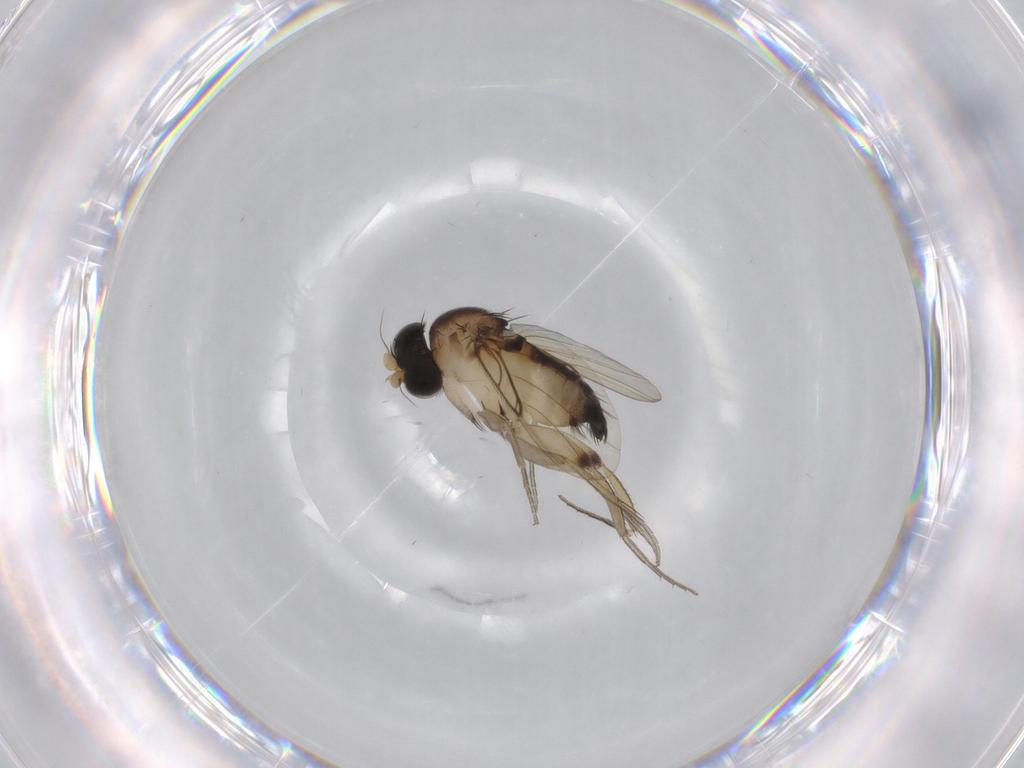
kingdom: Animalia
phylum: Arthropoda
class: Insecta
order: Diptera
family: Phoridae
